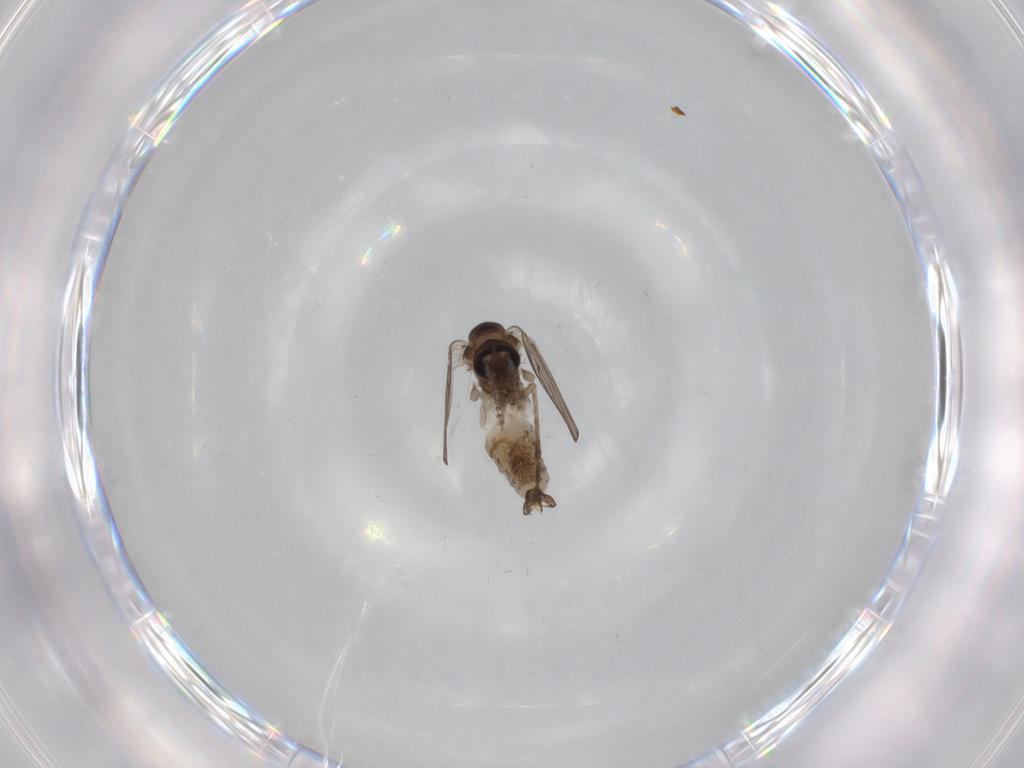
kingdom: Animalia
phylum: Arthropoda
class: Insecta
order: Diptera
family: Psychodidae
